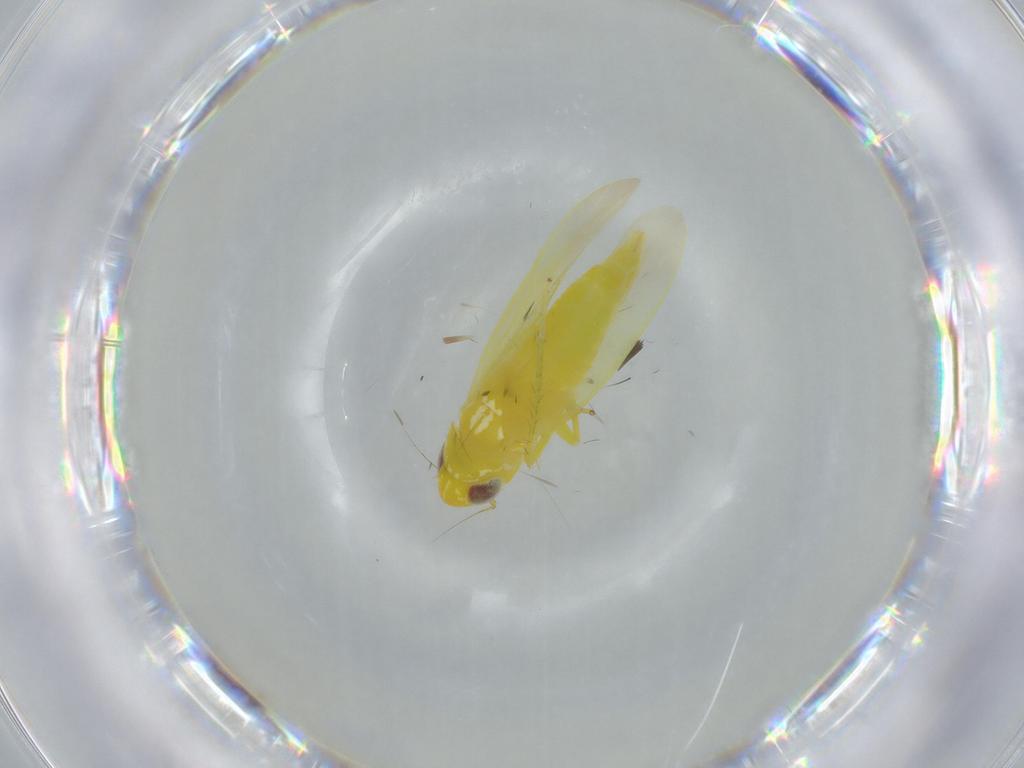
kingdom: Animalia
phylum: Arthropoda
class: Insecta
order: Hemiptera
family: Cicadellidae
